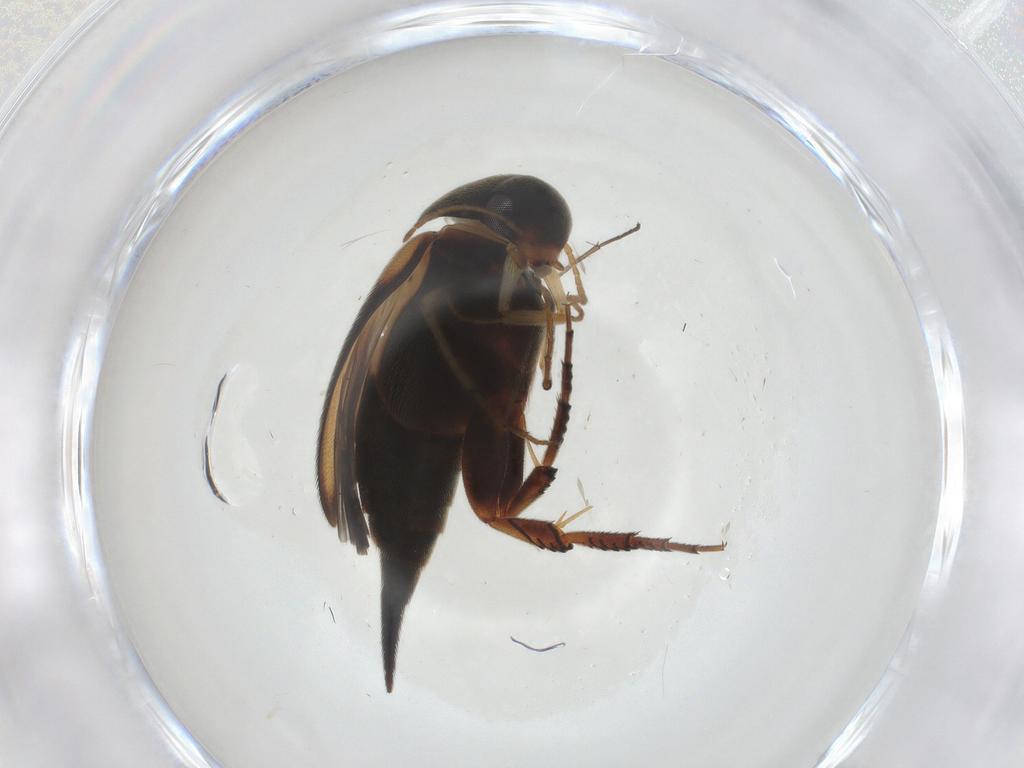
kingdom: Animalia
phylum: Arthropoda
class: Insecta
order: Coleoptera
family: Mordellidae
